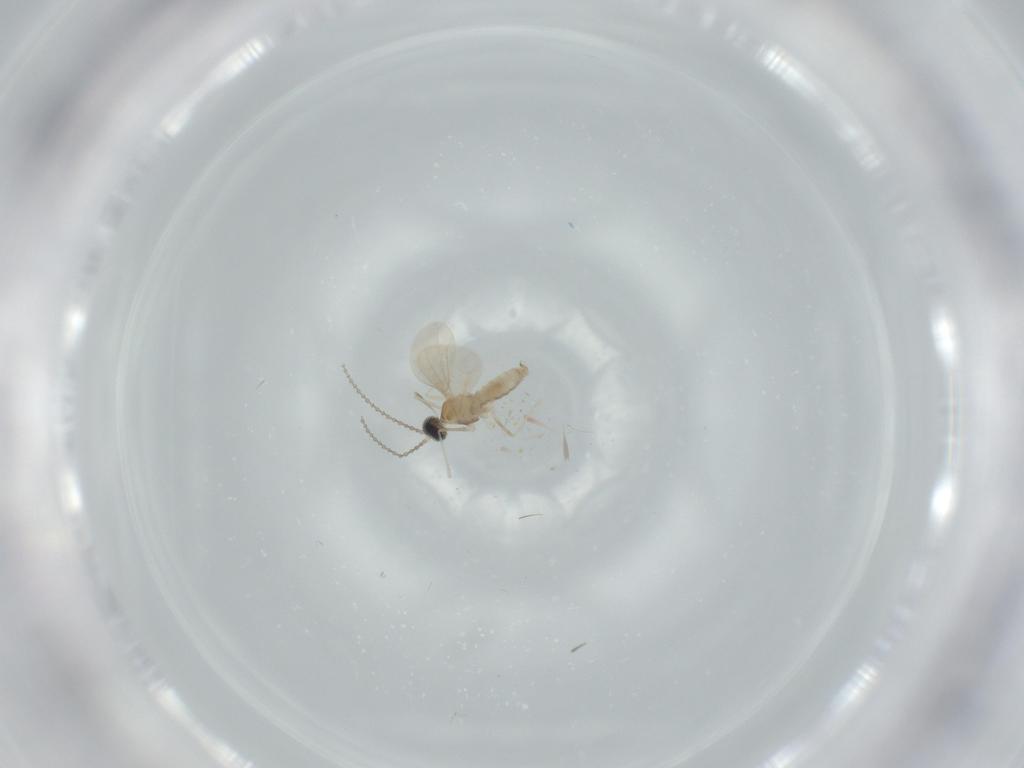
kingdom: Animalia
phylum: Arthropoda
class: Insecta
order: Diptera
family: Cecidomyiidae
